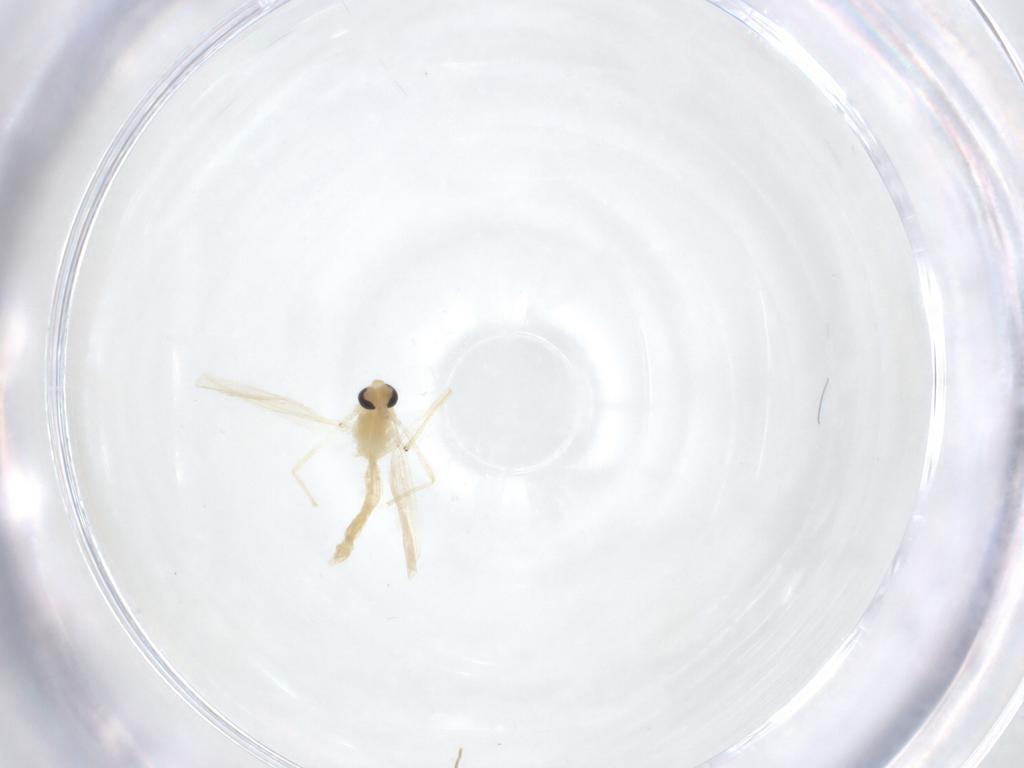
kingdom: Animalia
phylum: Arthropoda
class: Insecta
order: Diptera
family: Chironomidae
